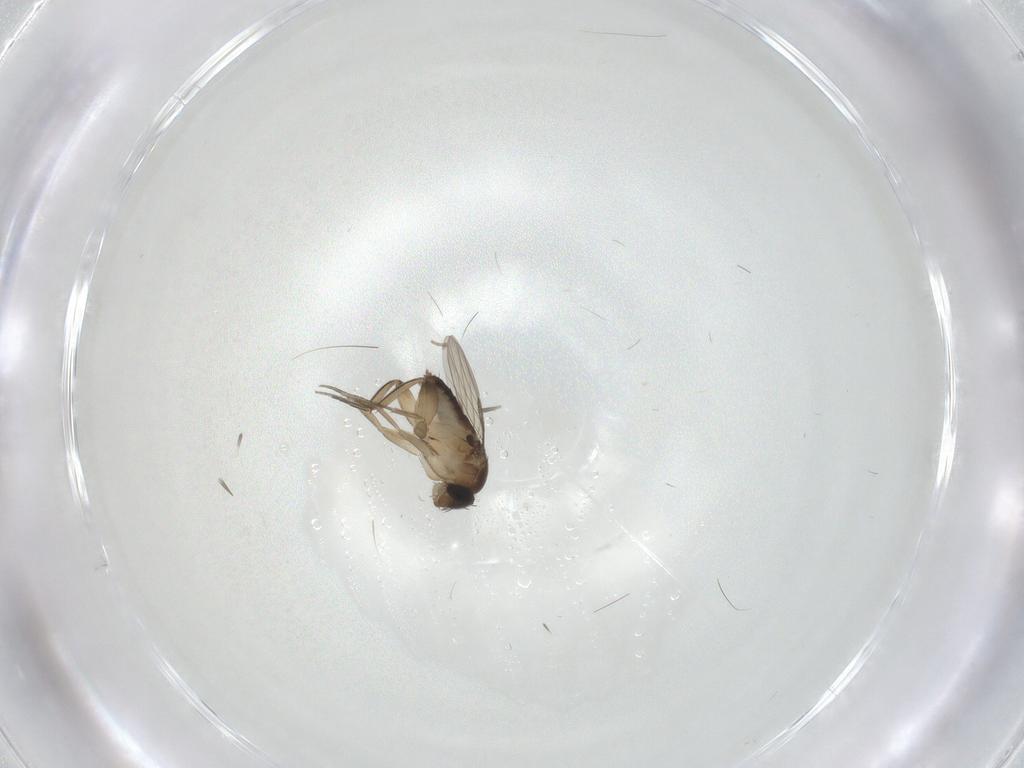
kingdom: Animalia
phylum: Arthropoda
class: Insecta
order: Diptera
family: Phoridae
